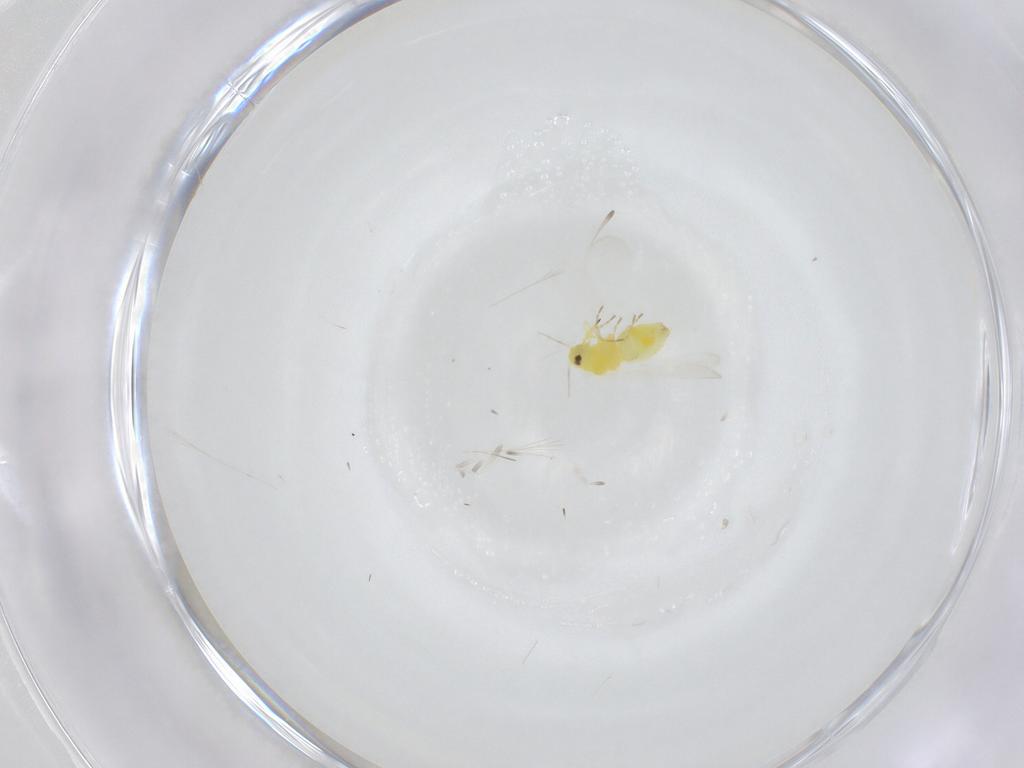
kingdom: Animalia
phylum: Arthropoda
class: Insecta
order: Hemiptera
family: Aleyrodidae
